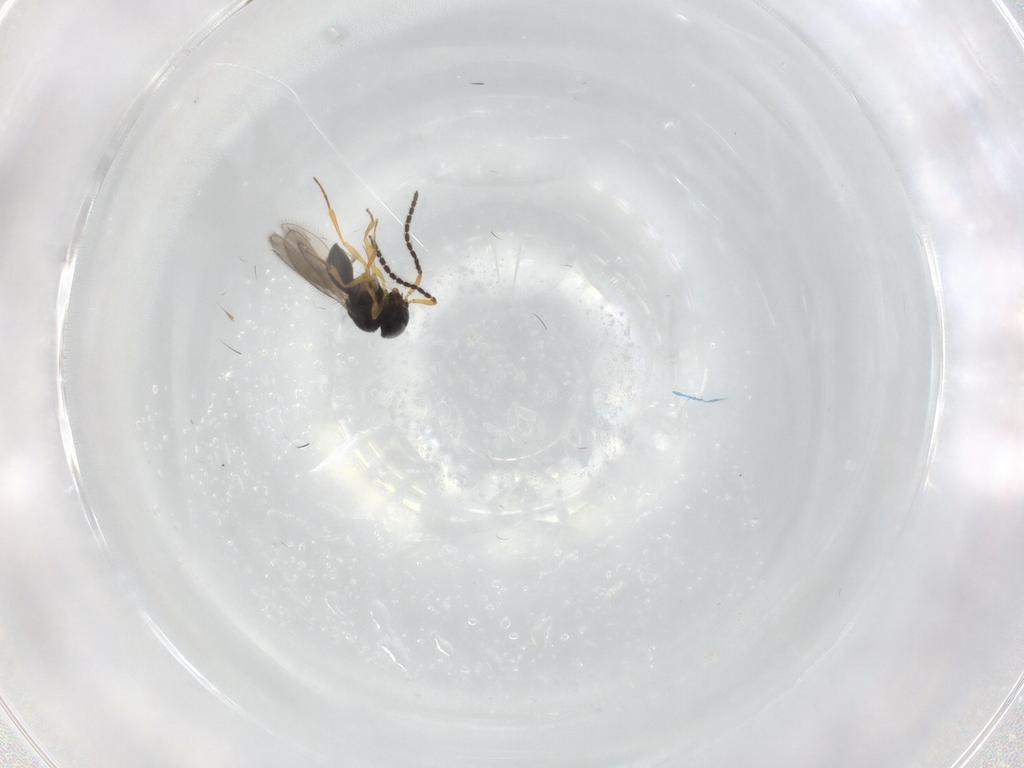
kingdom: Animalia
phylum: Arthropoda
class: Insecta
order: Hymenoptera
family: Scelionidae
